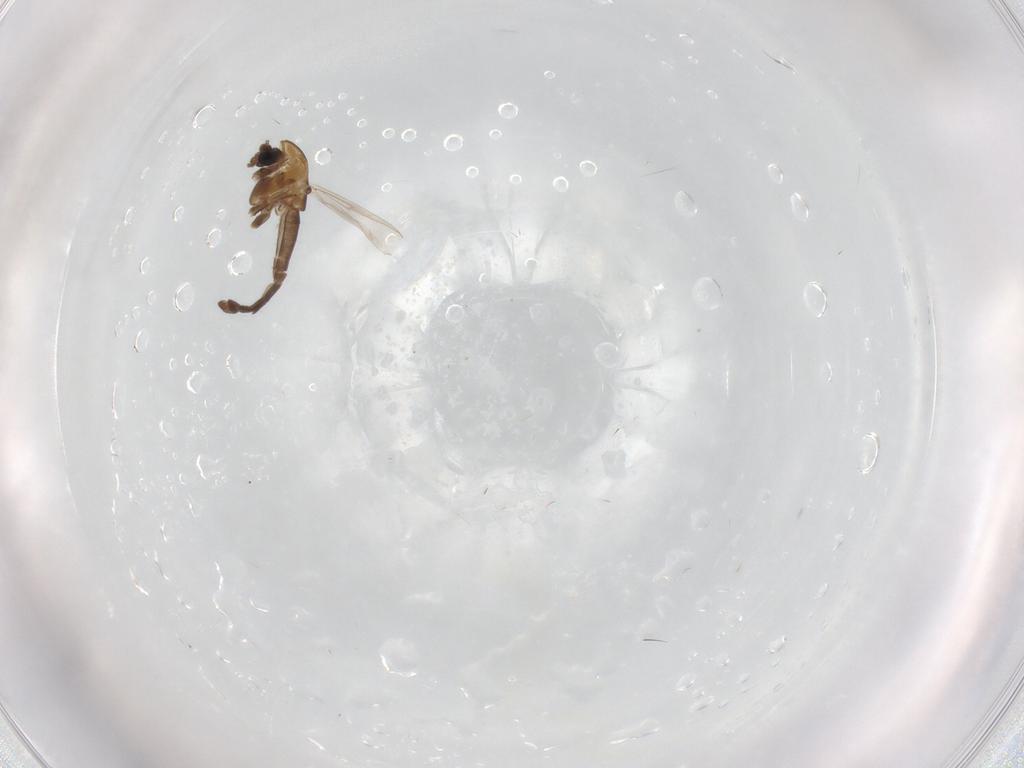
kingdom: Animalia
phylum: Arthropoda
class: Insecta
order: Diptera
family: Chironomidae
